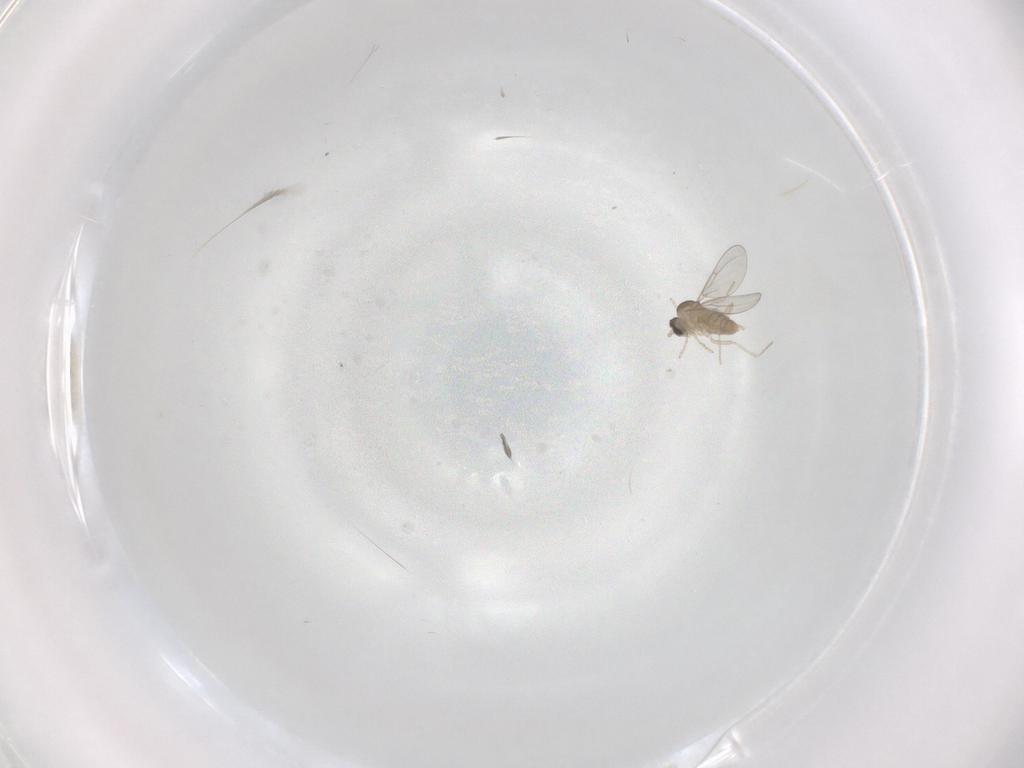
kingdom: Animalia
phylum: Arthropoda
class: Insecta
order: Diptera
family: Cecidomyiidae
